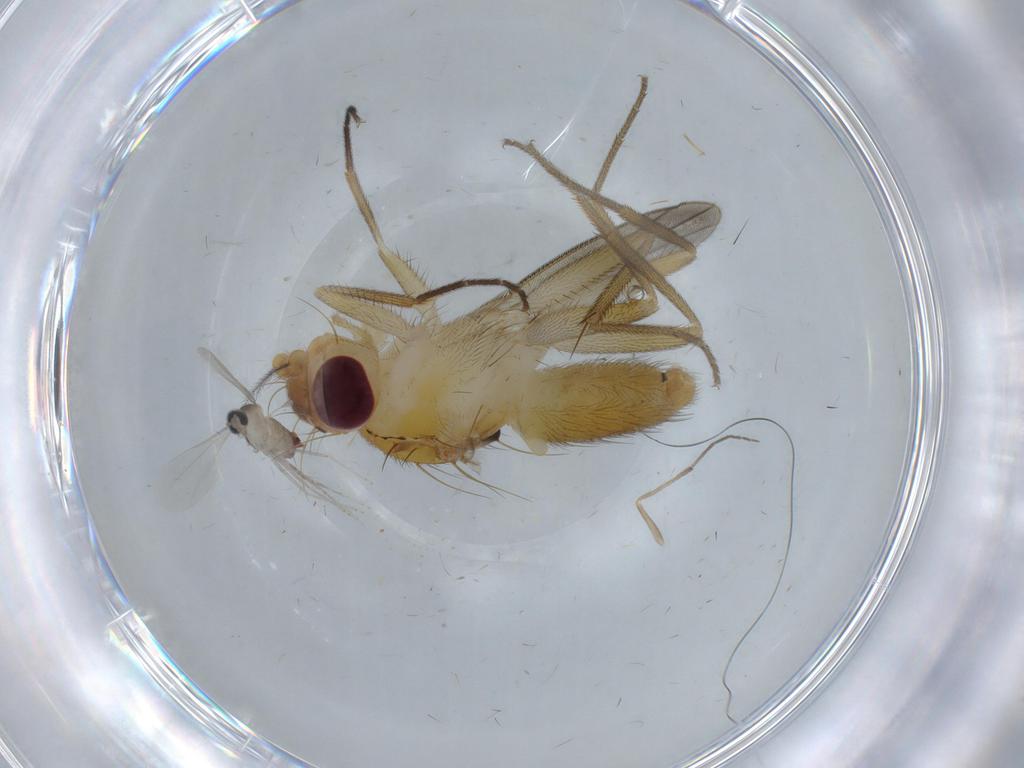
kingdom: Animalia
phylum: Arthropoda
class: Insecta
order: Diptera
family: Clusiidae
